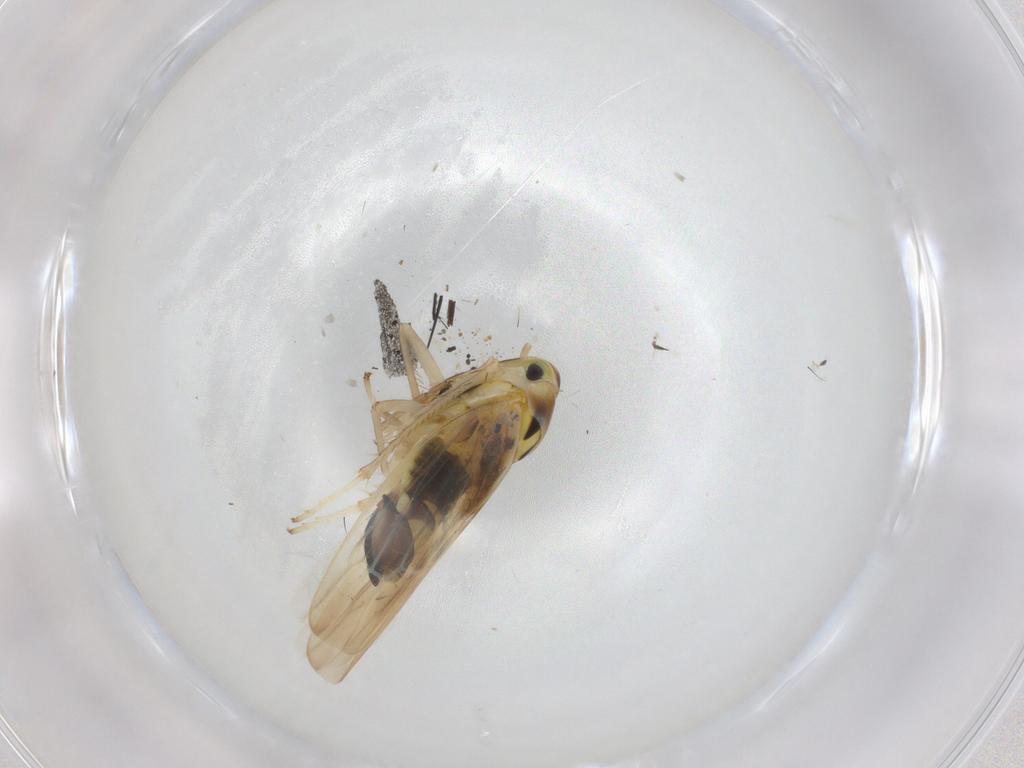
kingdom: Animalia
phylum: Arthropoda
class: Insecta
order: Hemiptera
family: Cicadellidae
